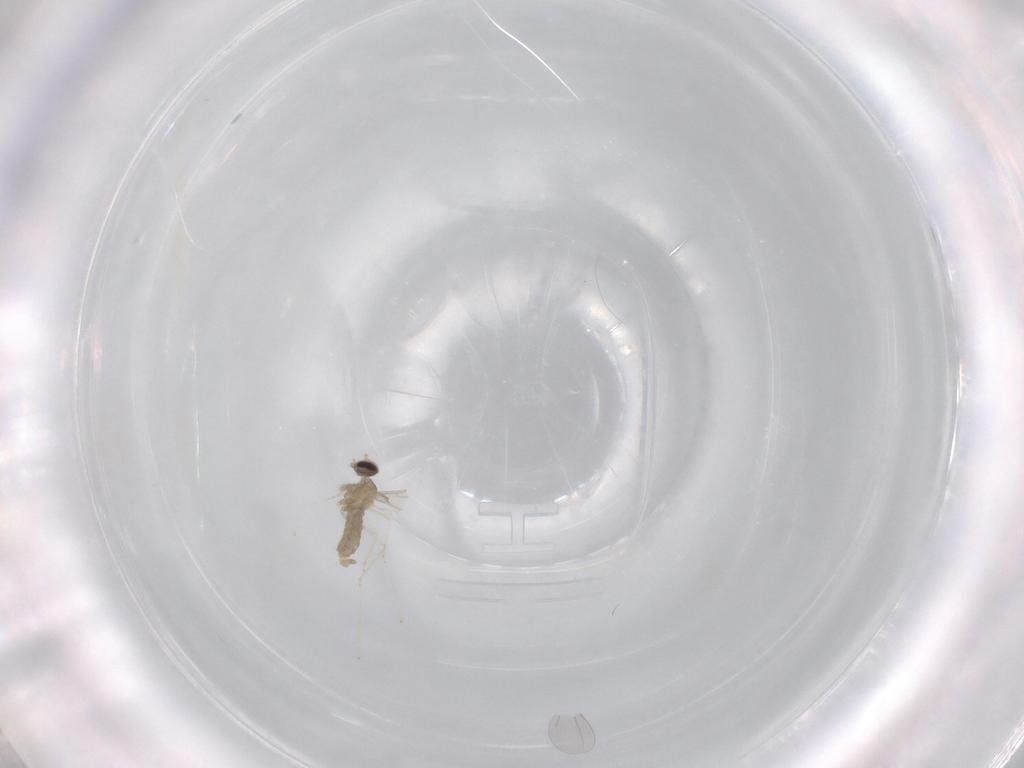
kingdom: Animalia
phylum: Arthropoda
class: Insecta
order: Diptera
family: Cecidomyiidae
